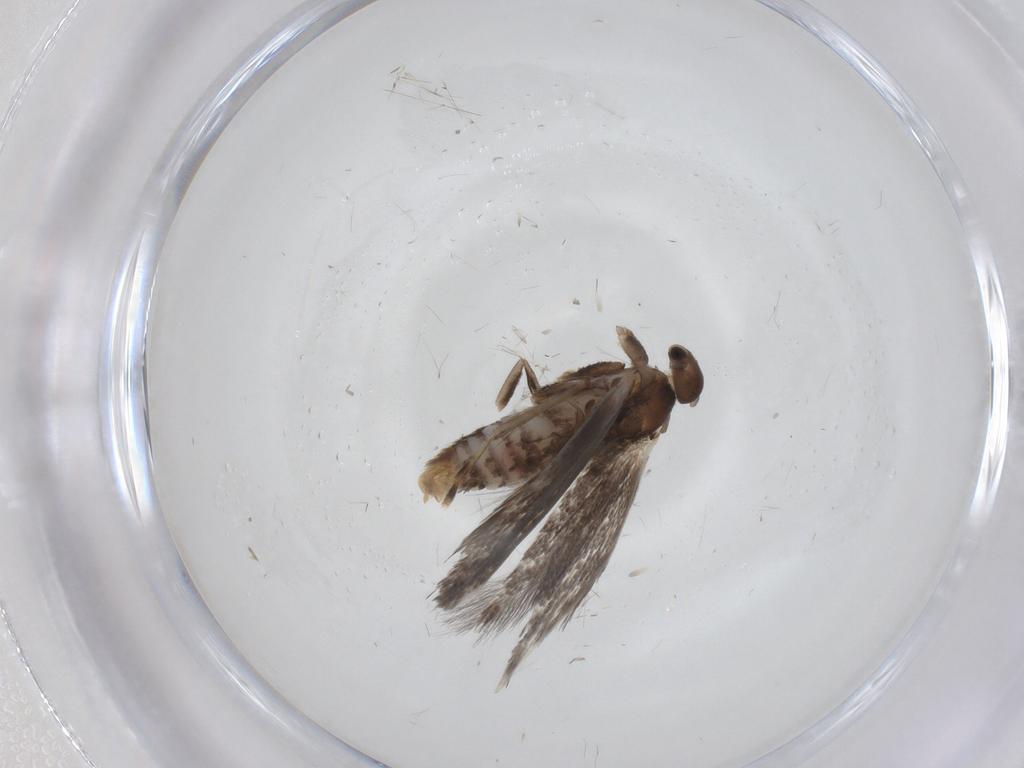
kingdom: Animalia
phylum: Arthropoda
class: Insecta
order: Lepidoptera
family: Elachistidae
